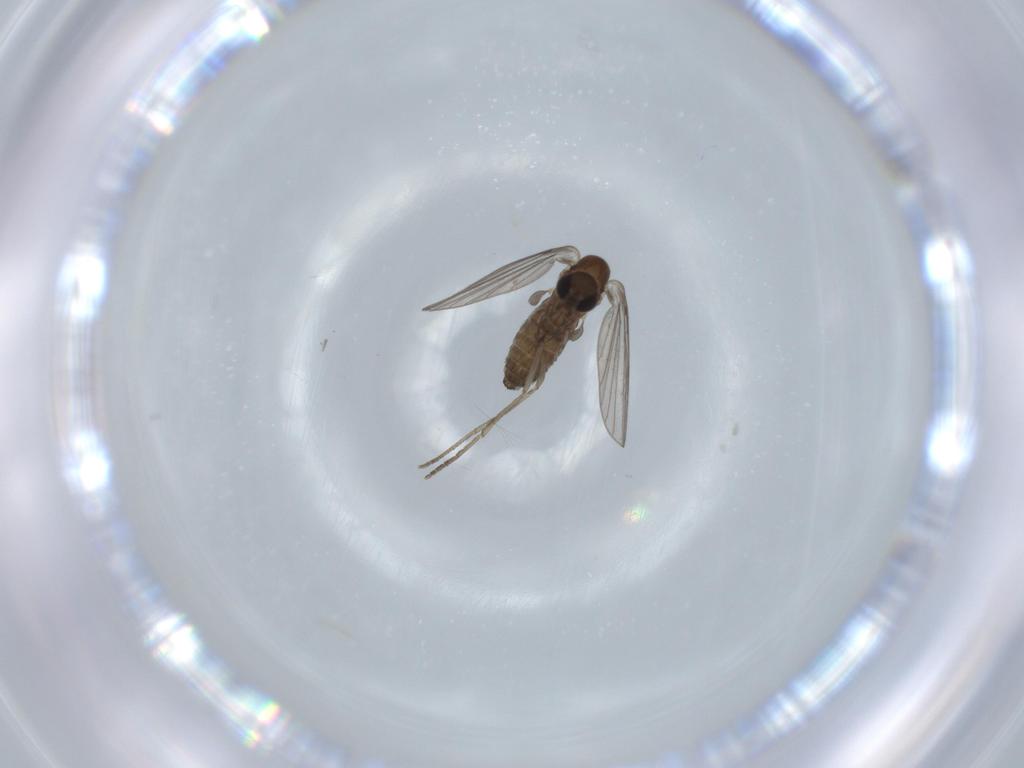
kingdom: Animalia
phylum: Arthropoda
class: Insecta
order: Diptera
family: Psychodidae
